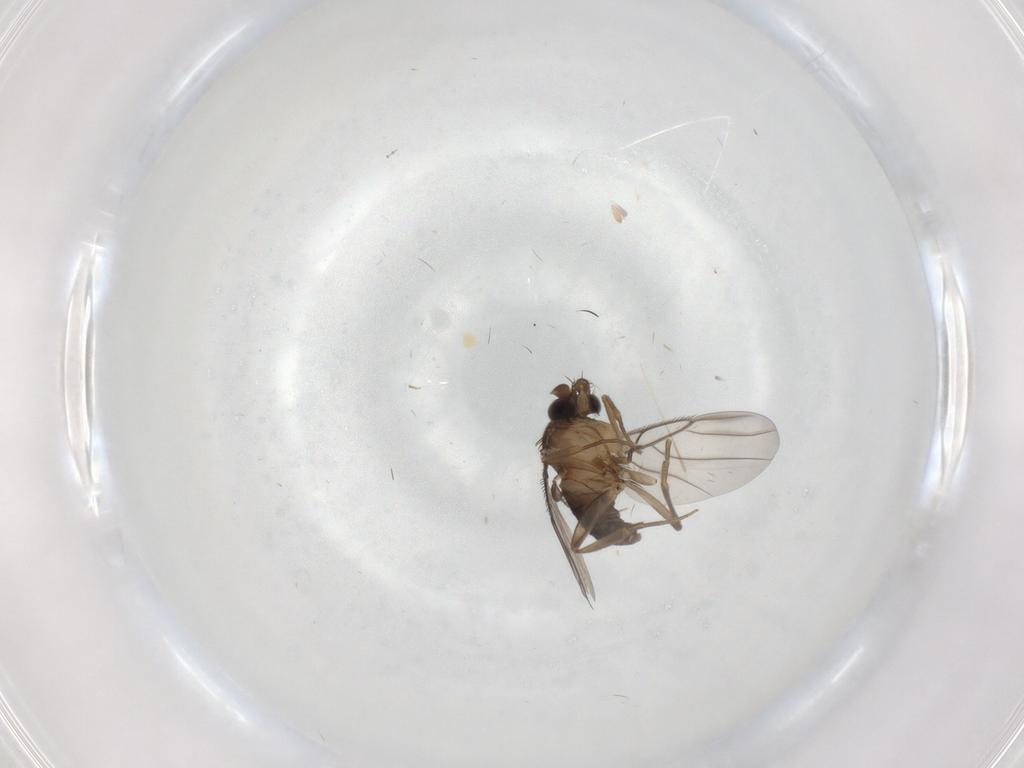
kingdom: Animalia
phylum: Arthropoda
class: Insecta
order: Diptera
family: Phoridae
